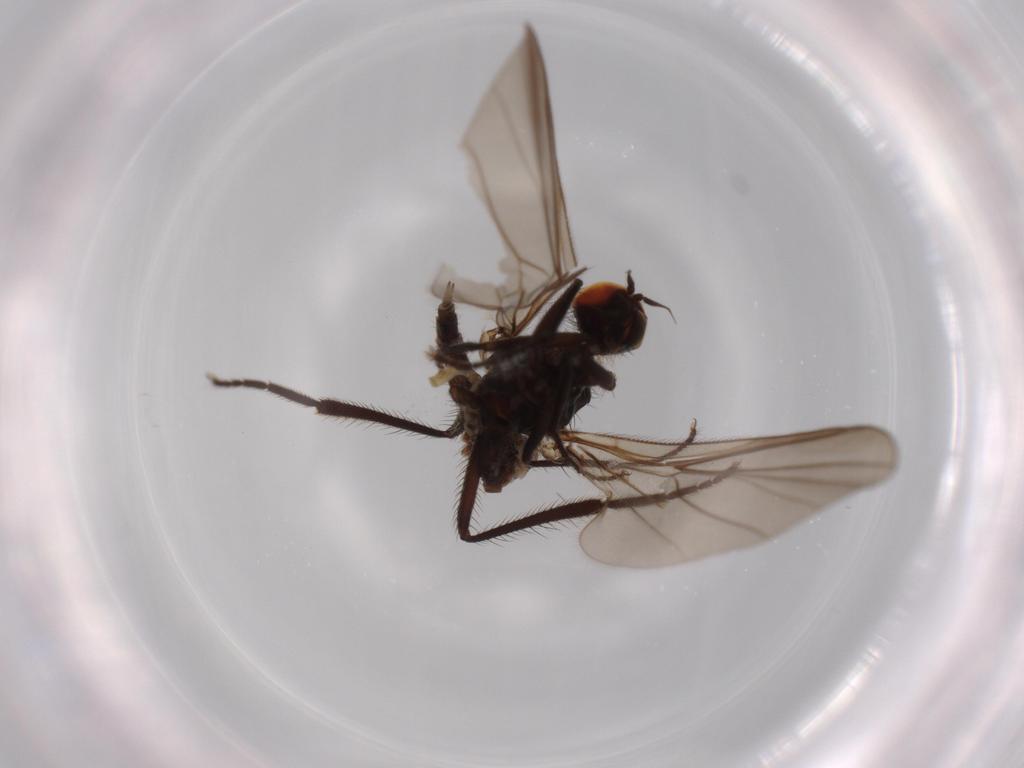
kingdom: Animalia
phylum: Arthropoda
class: Insecta
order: Diptera
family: Hybotidae
